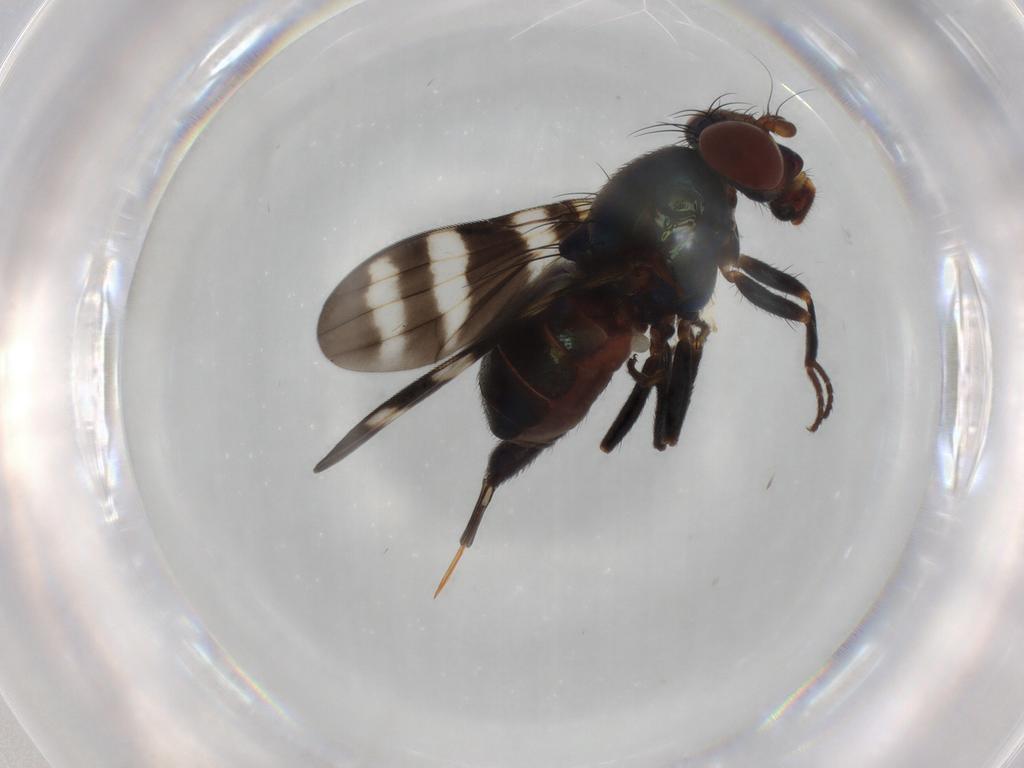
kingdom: Animalia
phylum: Arthropoda
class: Insecta
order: Diptera
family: Ulidiidae
